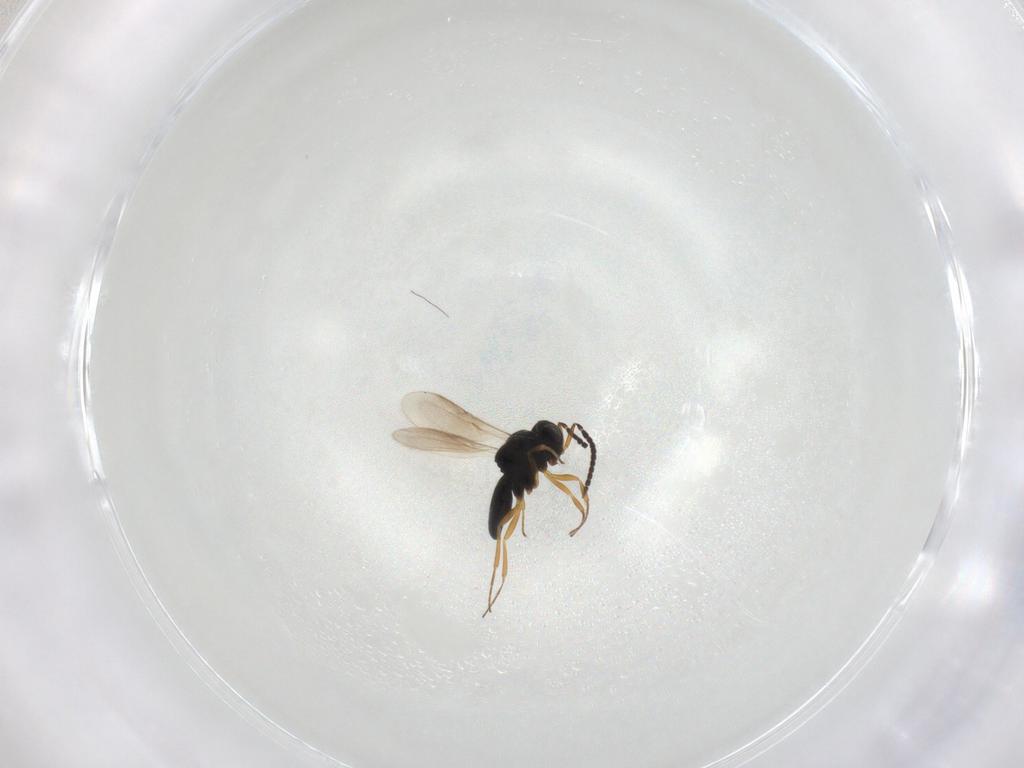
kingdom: Animalia
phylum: Arthropoda
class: Insecta
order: Hymenoptera
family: Scelionidae
